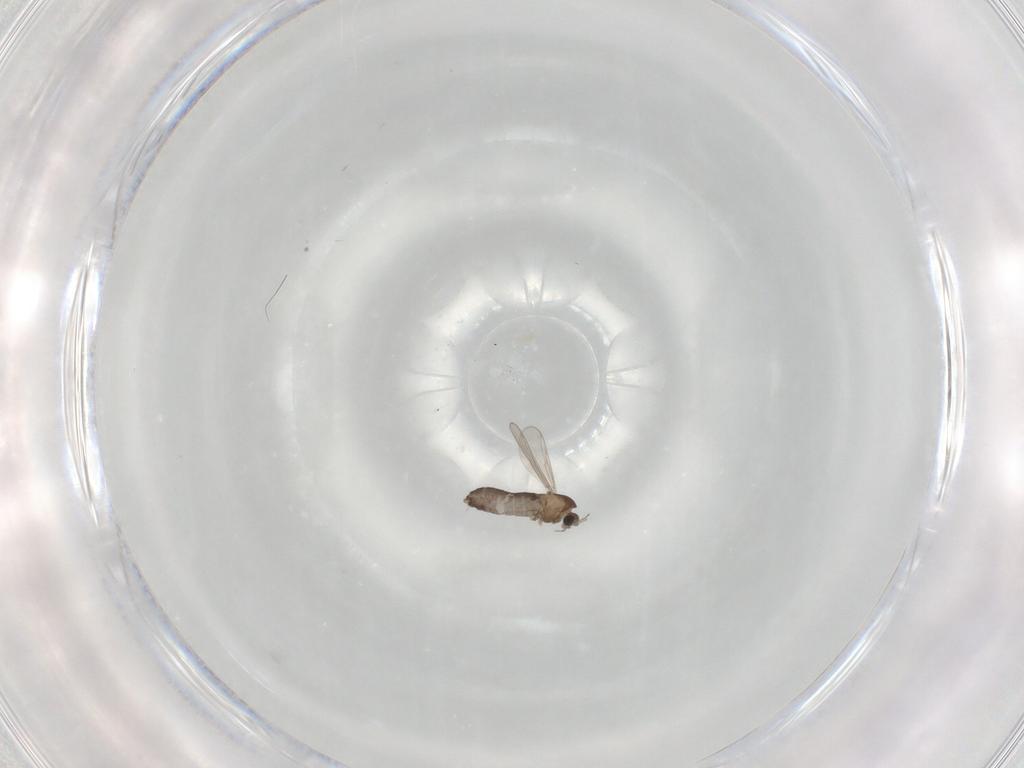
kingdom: Animalia
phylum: Arthropoda
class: Insecta
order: Diptera
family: Chironomidae
